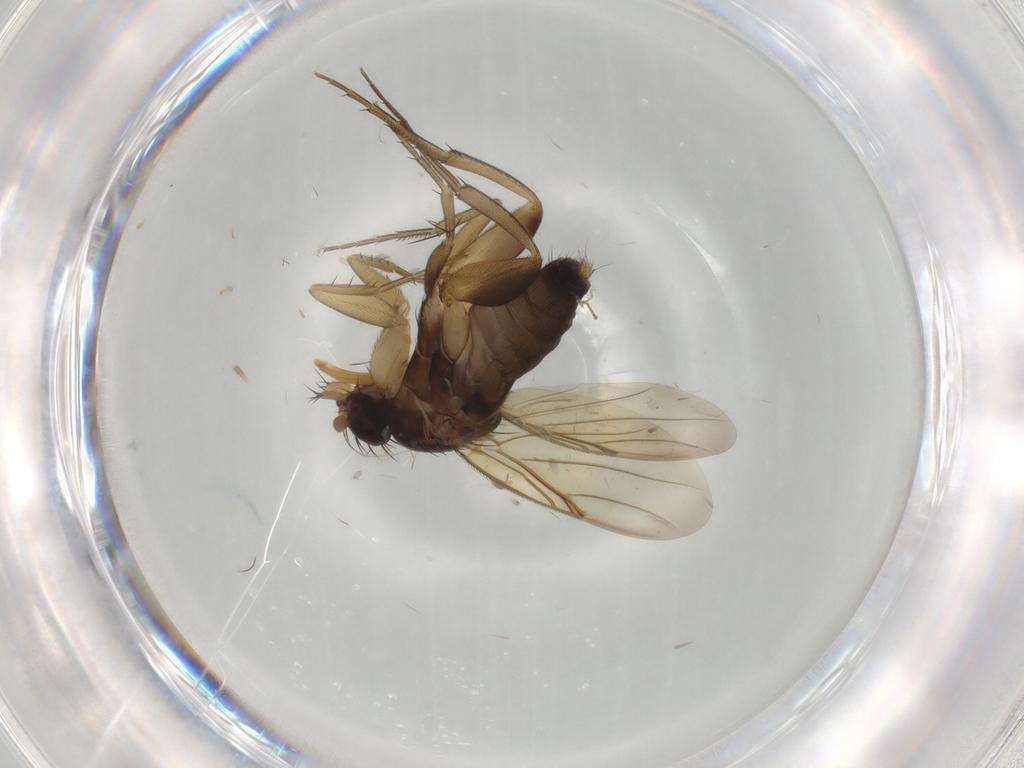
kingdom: Animalia
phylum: Arthropoda
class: Insecta
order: Diptera
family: Phoridae
